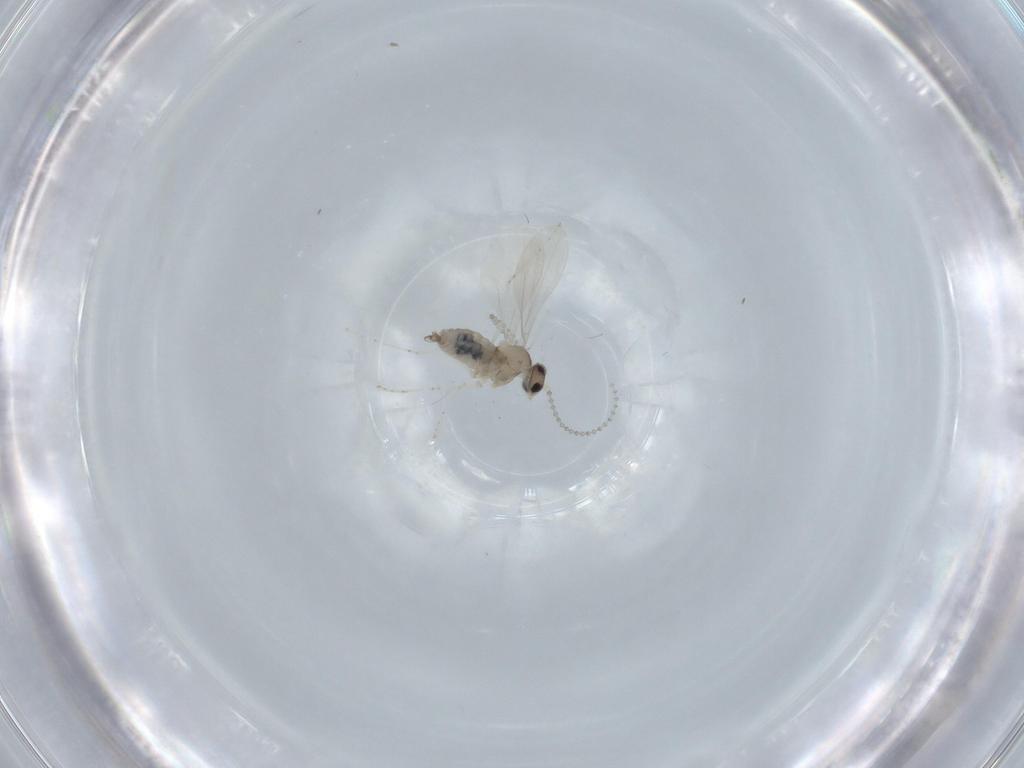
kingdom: Animalia
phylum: Arthropoda
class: Insecta
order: Diptera
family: Cecidomyiidae
